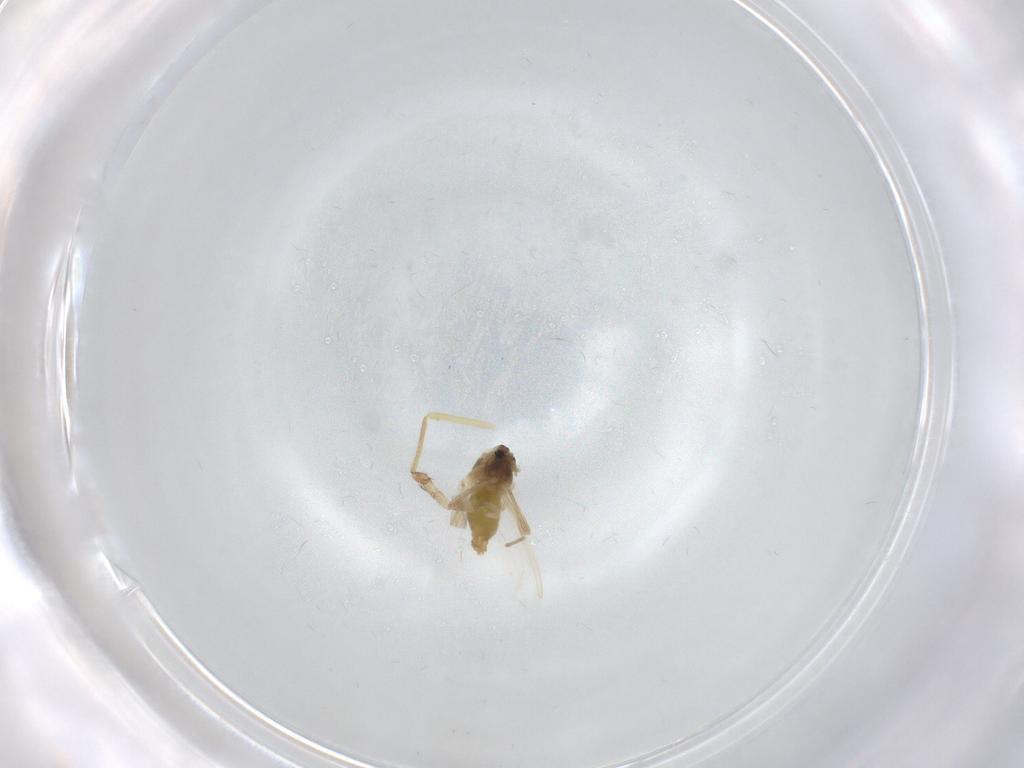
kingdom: Animalia
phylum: Arthropoda
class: Insecta
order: Diptera
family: Chironomidae
